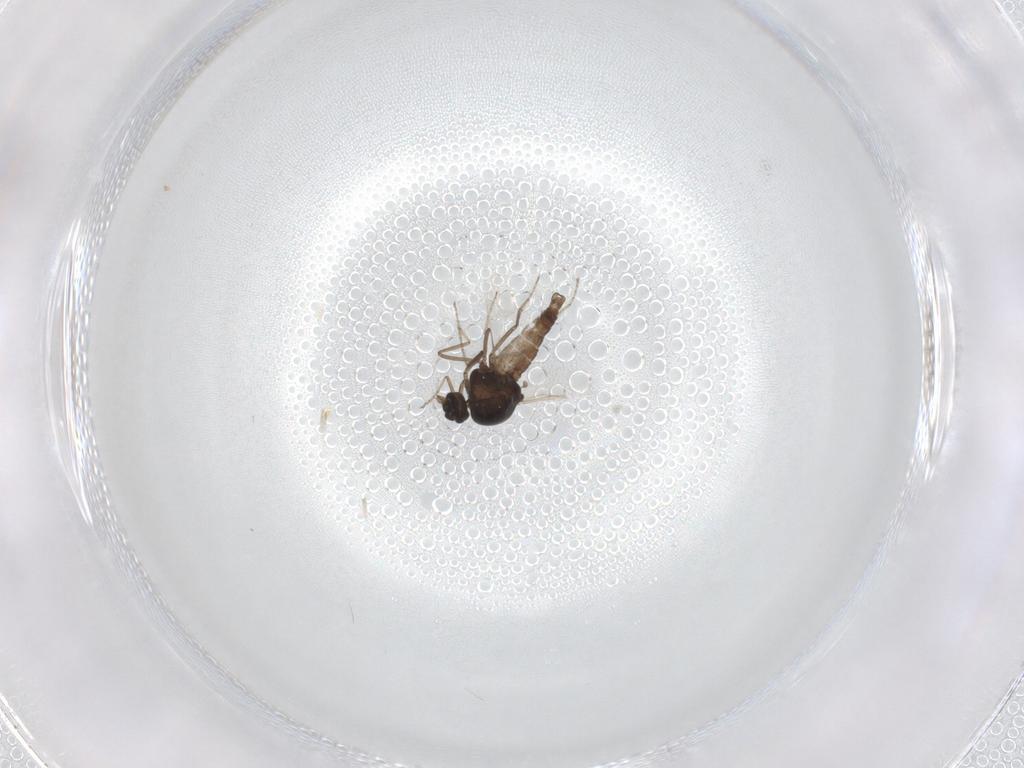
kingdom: Animalia
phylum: Arthropoda
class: Insecta
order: Diptera
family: Ceratopogonidae
